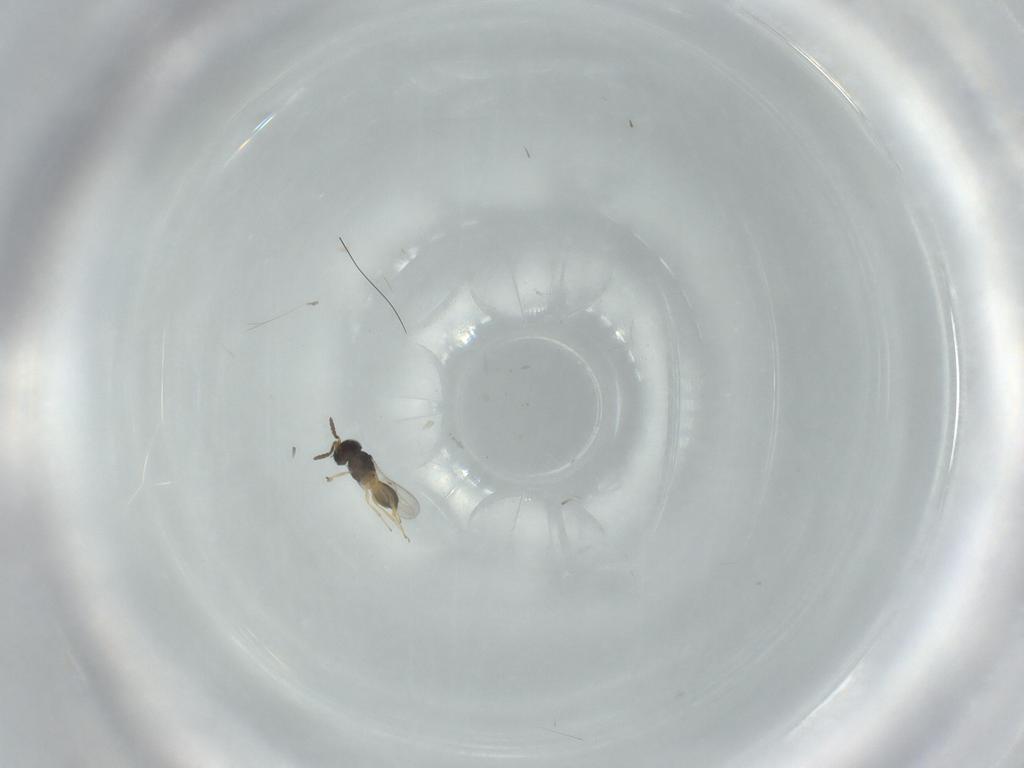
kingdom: Animalia
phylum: Arthropoda
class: Insecta
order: Hymenoptera
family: Scelionidae
